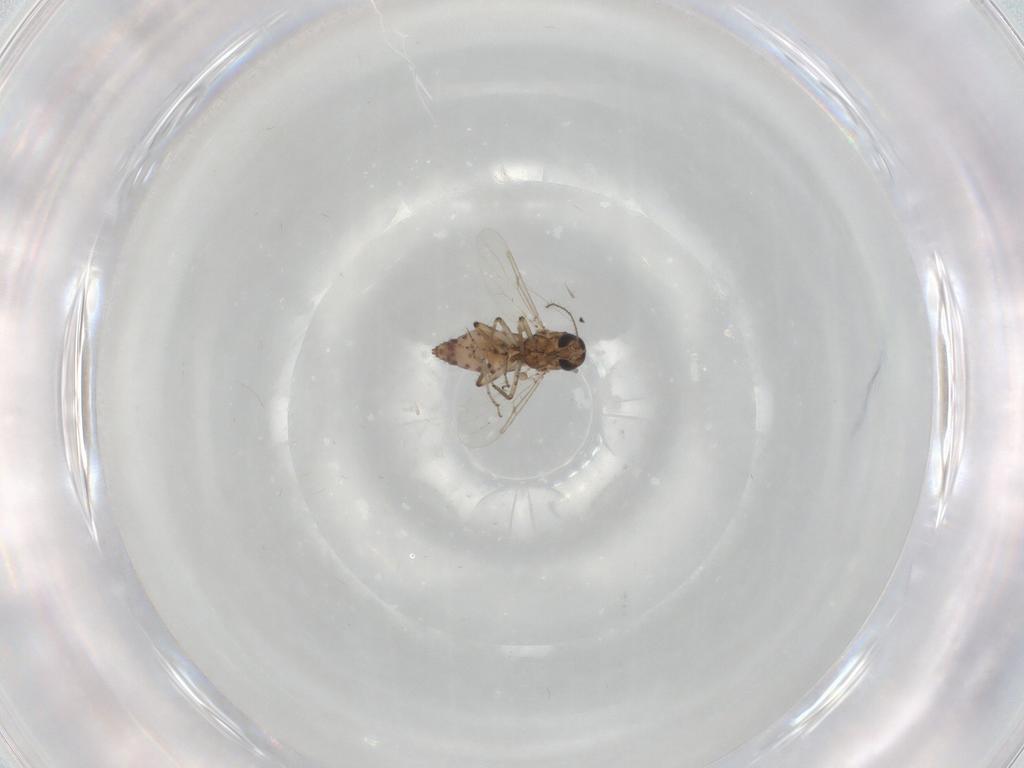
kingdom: Animalia
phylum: Arthropoda
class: Insecta
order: Diptera
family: Ceratopogonidae
